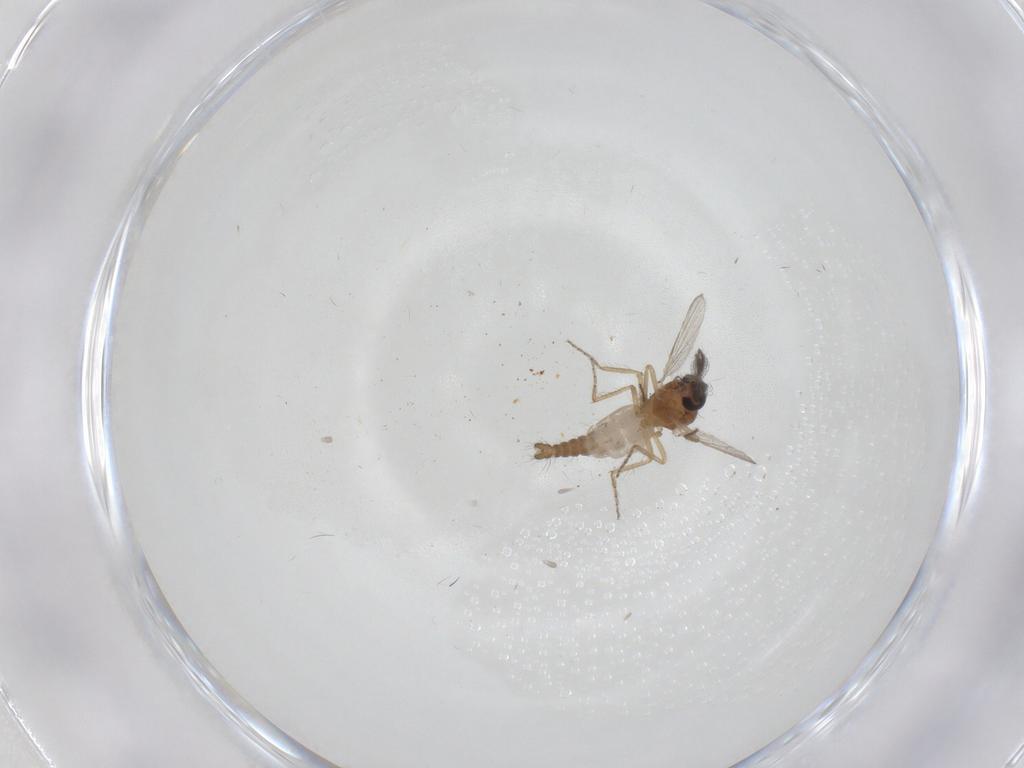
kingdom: Animalia
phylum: Arthropoda
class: Insecta
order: Diptera
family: Ceratopogonidae
